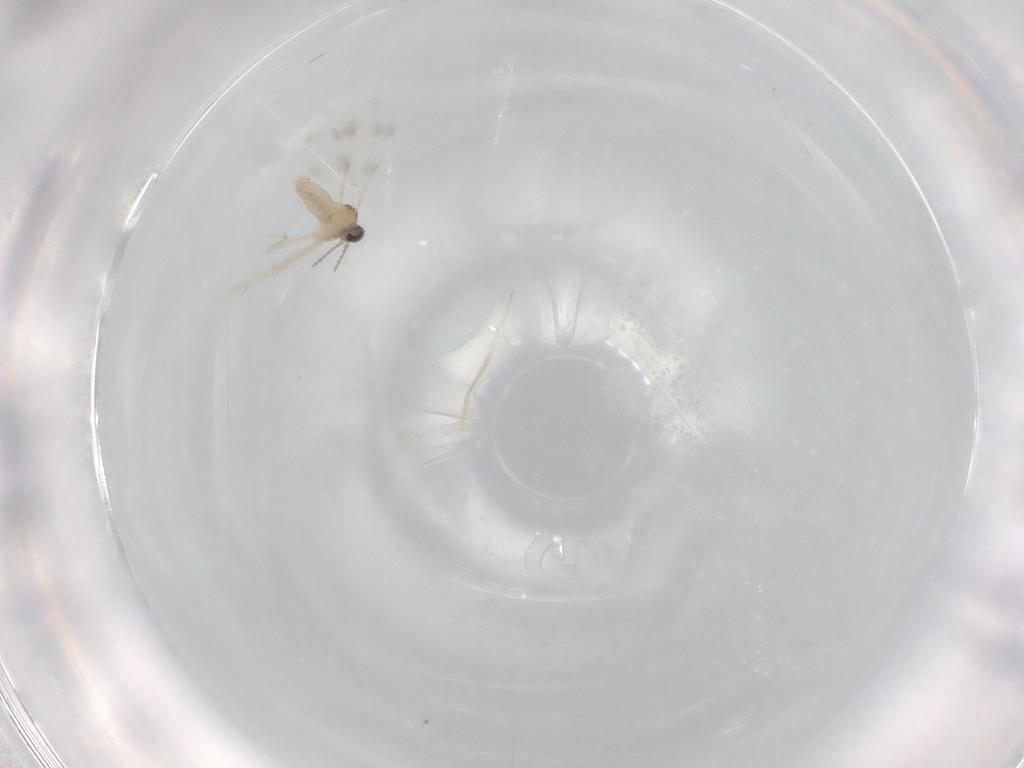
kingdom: Animalia
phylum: Arthropoda
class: Insecta
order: Diptera
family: Cecidomyiidae
